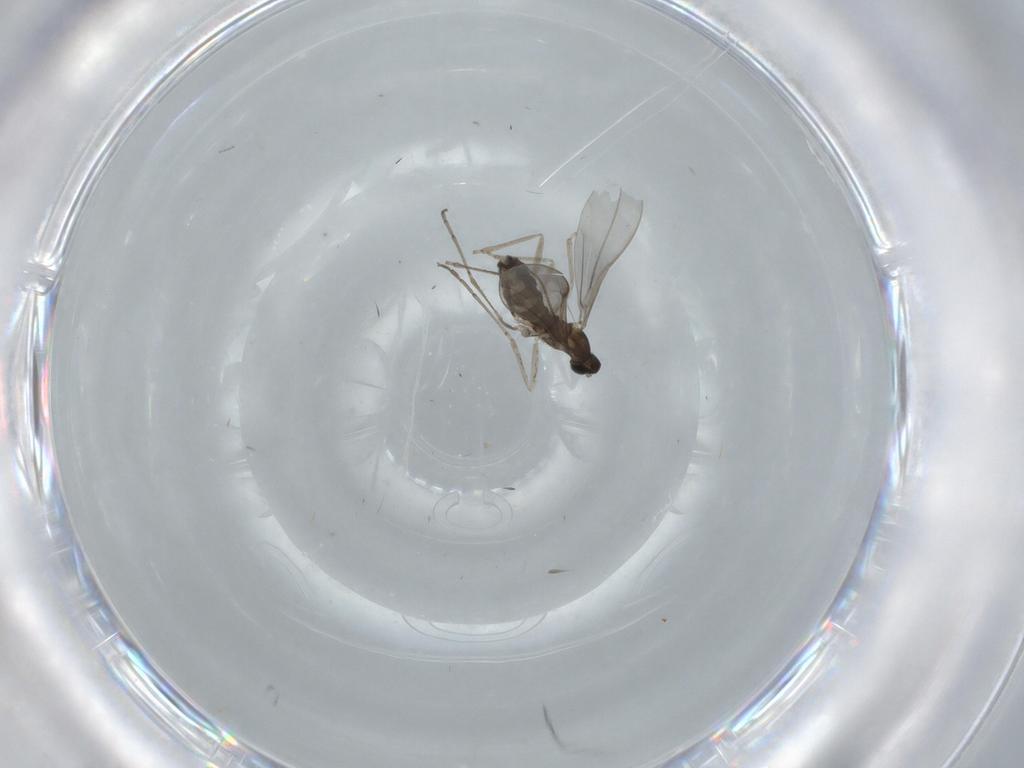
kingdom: Animalia
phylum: Arthropoda
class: Insecta
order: Diptera
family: Cecidomyiidae
